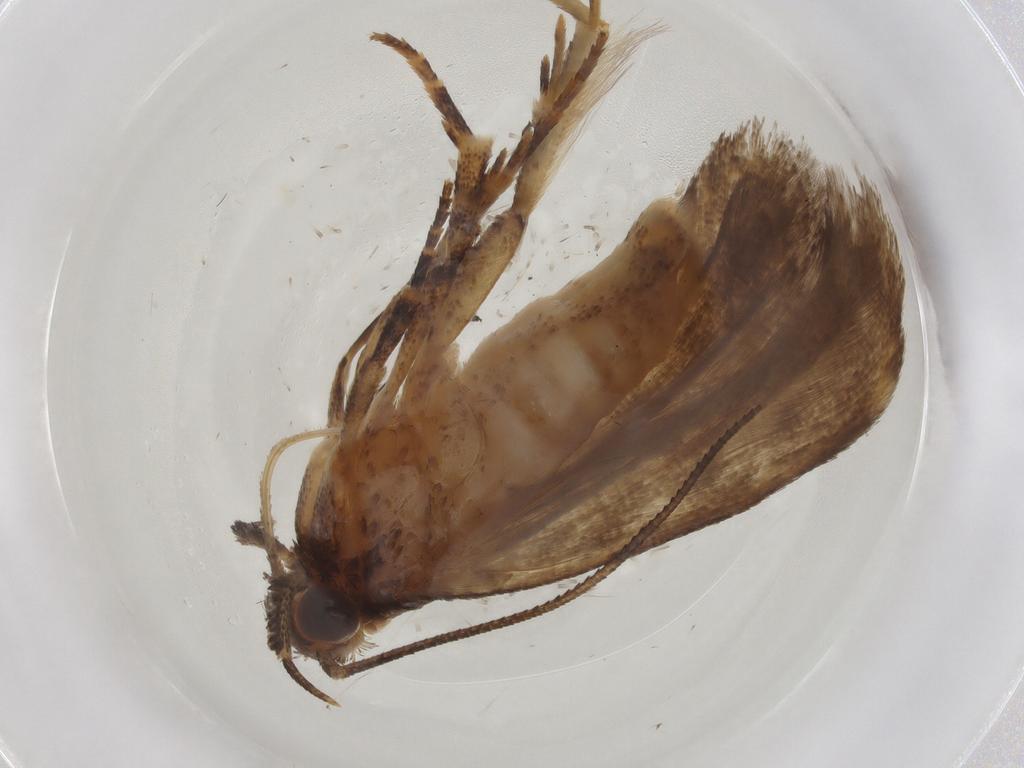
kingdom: Animalia
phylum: Arthropoda
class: Insecta
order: Lepidoptera
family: Gelechiidae
